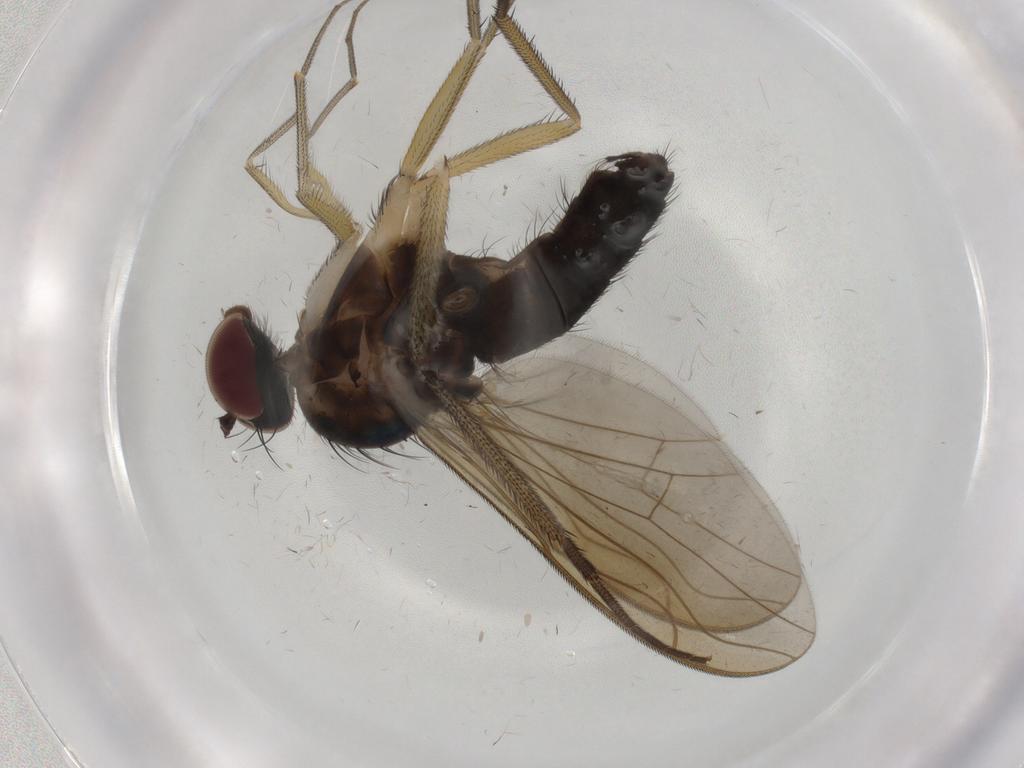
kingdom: Animalia
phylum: Arthropoda
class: Insecta
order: Diptera
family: Dolichopodidae
